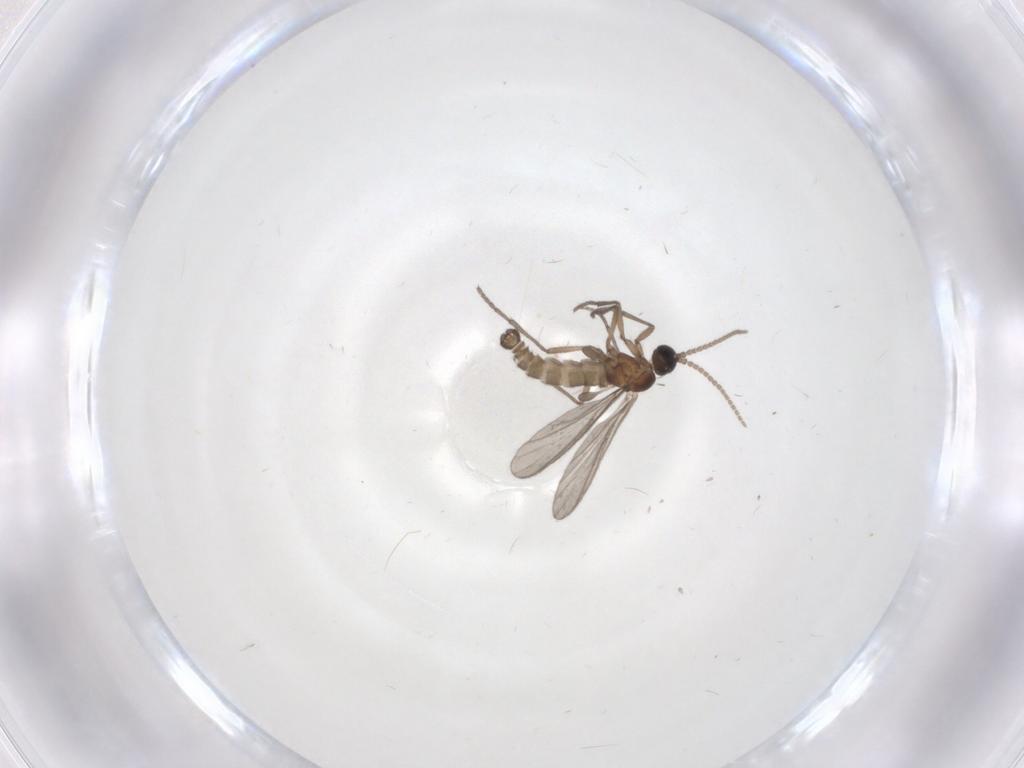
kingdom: Animalia
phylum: Arthropoda
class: Insecta
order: Diptera
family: Sciaridae
